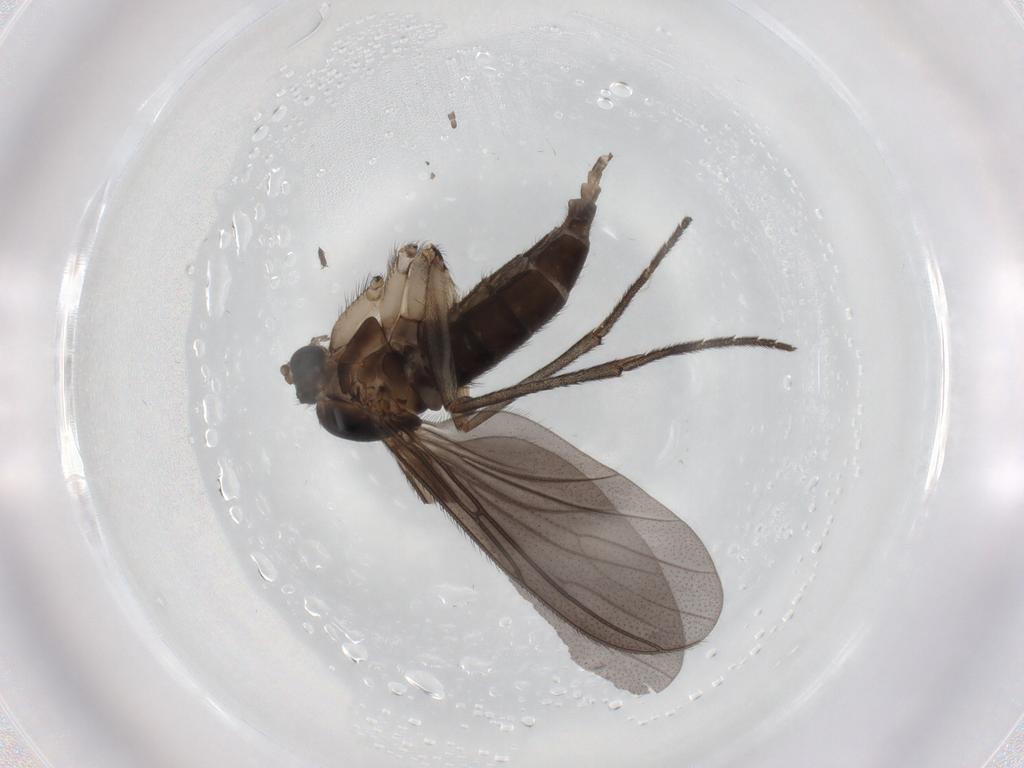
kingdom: Animalia
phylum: Arthropoda
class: Insecta
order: Diptera
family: Sciaridae
